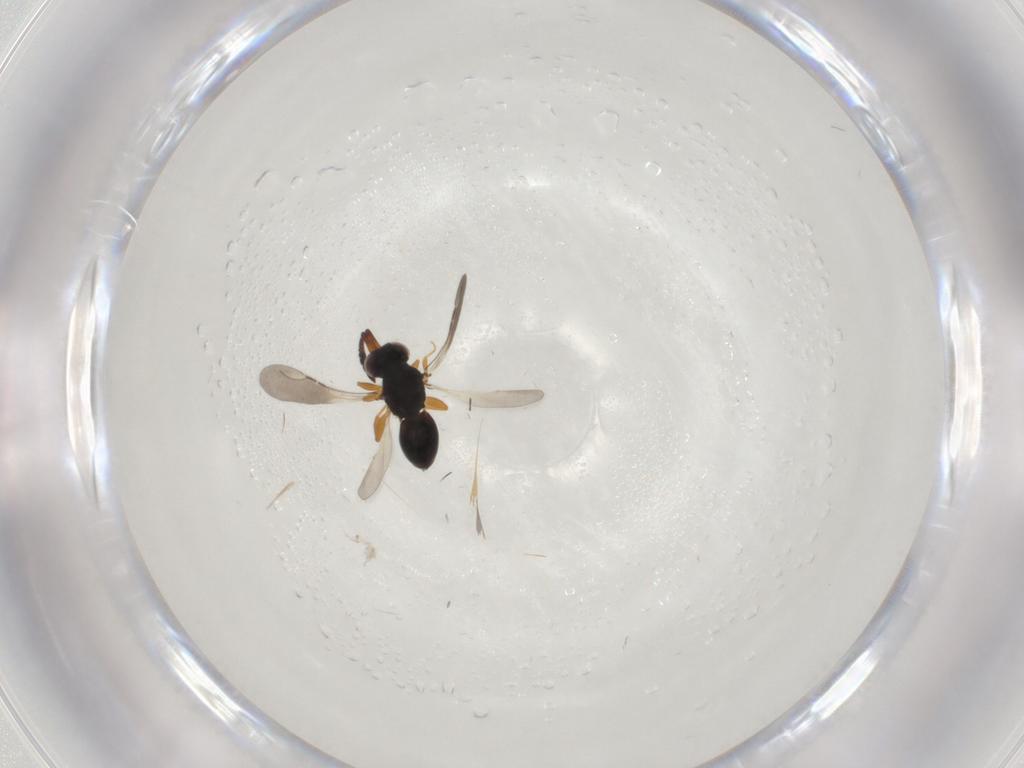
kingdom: Animalia
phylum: Arthropoda
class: Insecta
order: Hymenoptera
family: Ceraphronidae
